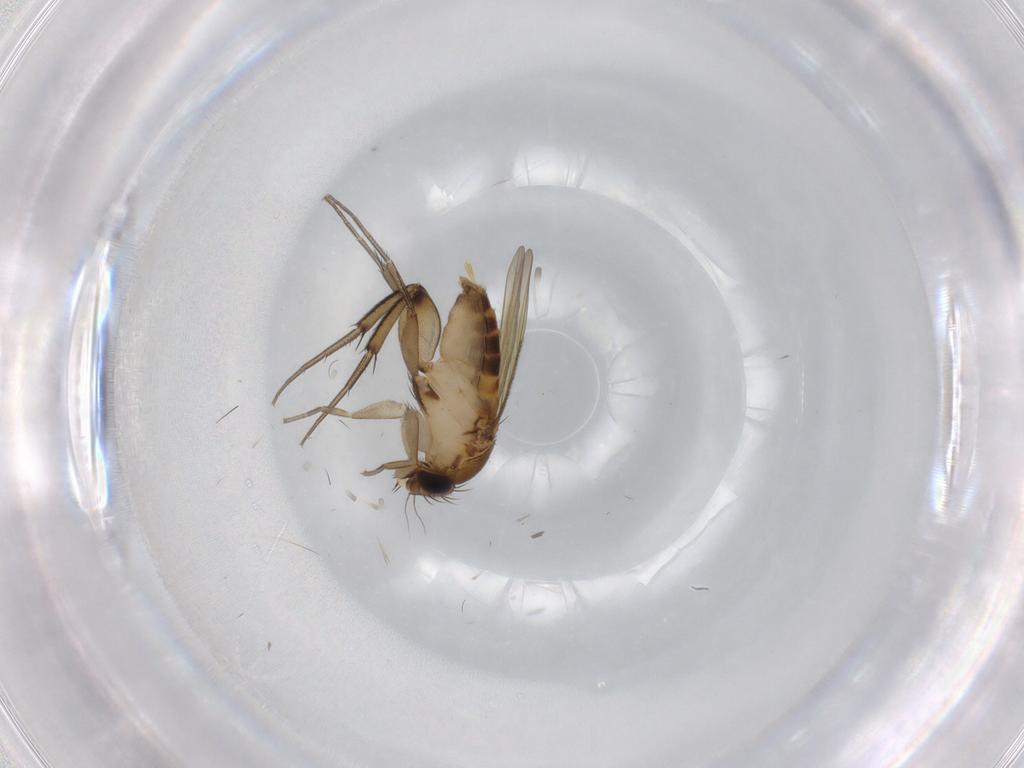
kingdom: Animalia
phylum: Arthropoda
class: Insecta
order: Diptera
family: Phoridae
